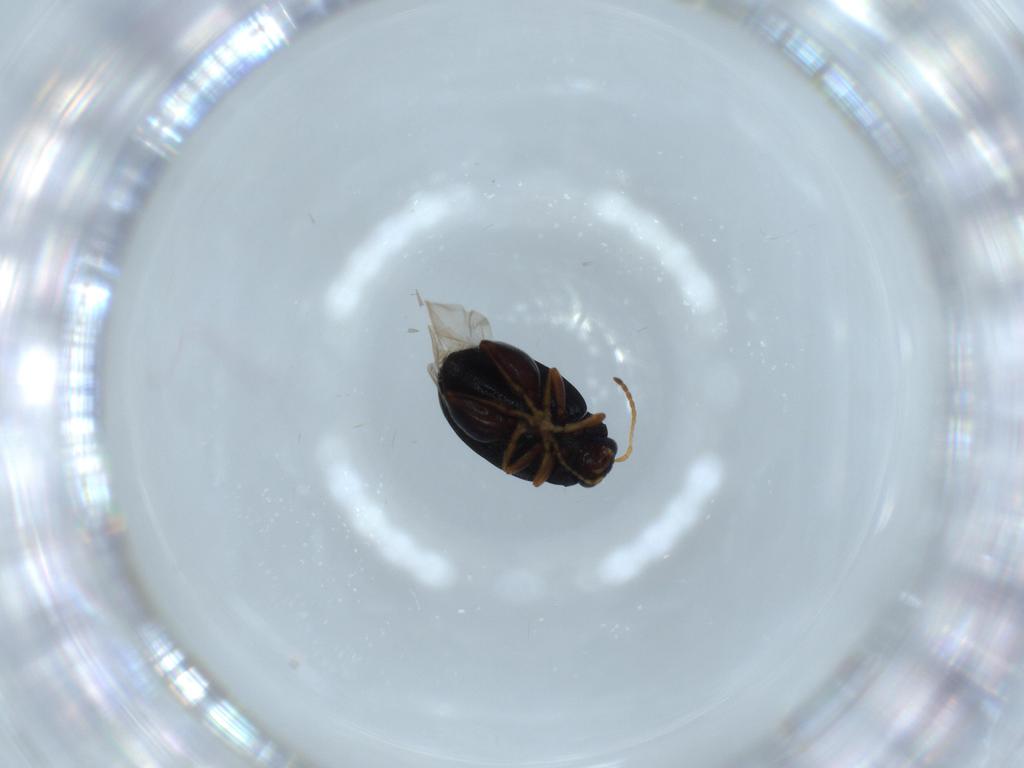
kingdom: Animalia
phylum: Arthropoda
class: Insecta
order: Coleoptera
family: Chrysomelidae
